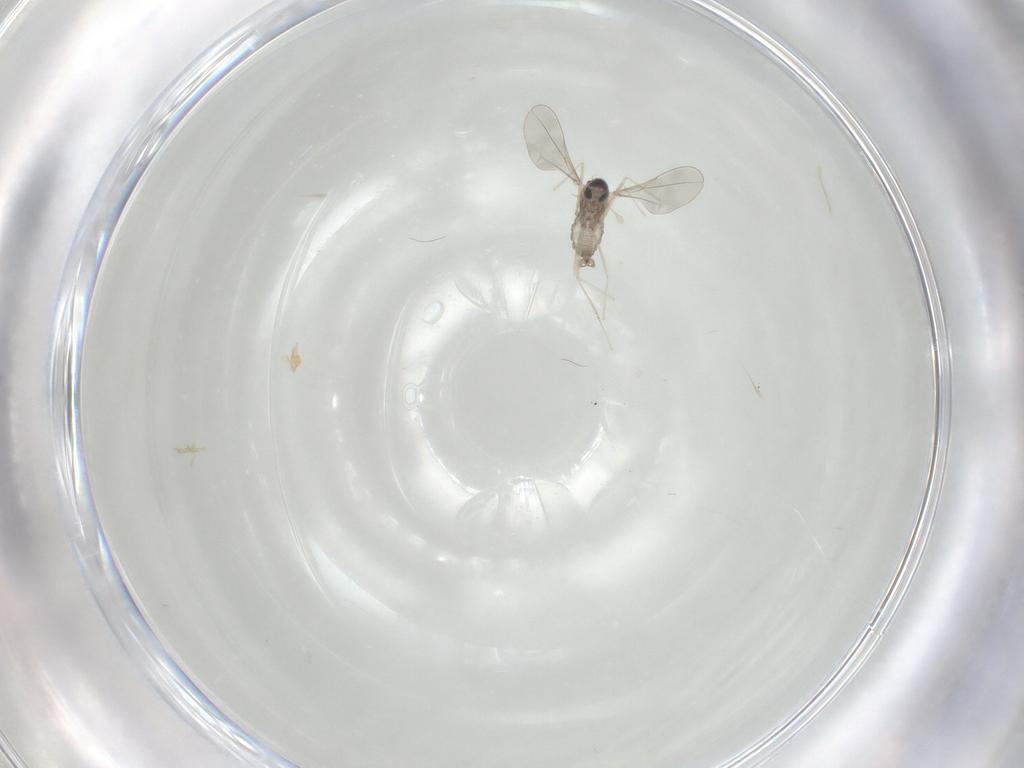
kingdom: Animalia
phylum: Arthropoda
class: Insecta
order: Diptera
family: Cecidomyiidae
